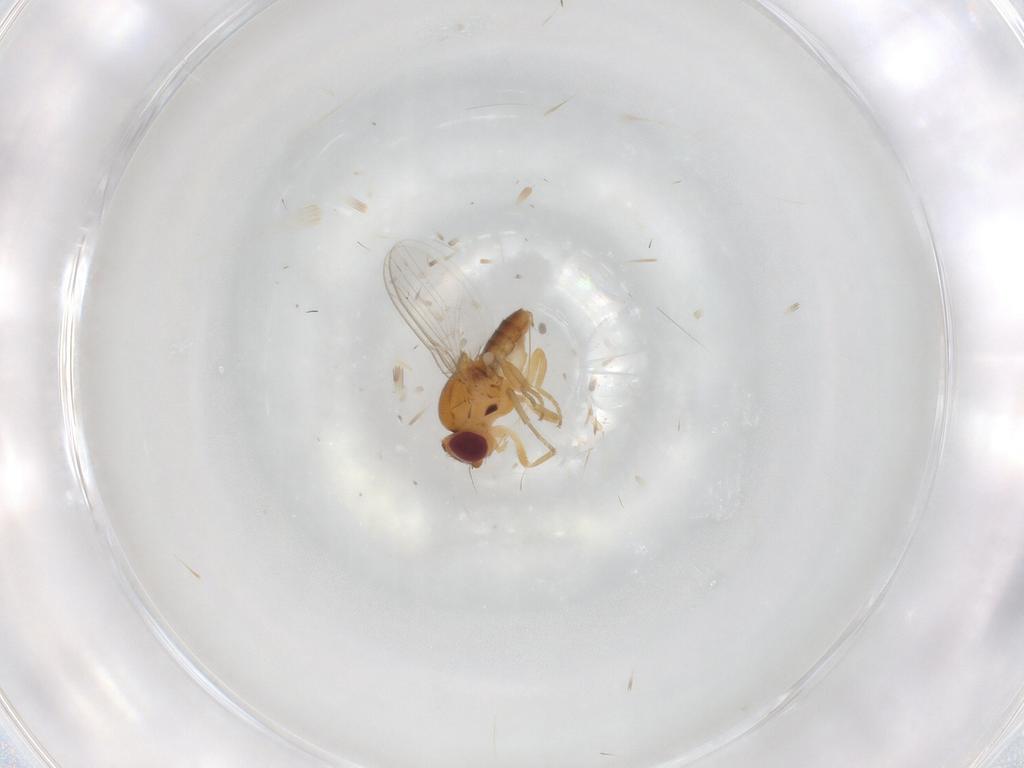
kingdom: Animalia
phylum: Arthropoda
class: Insecta
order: Diptera
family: Chloropidae
